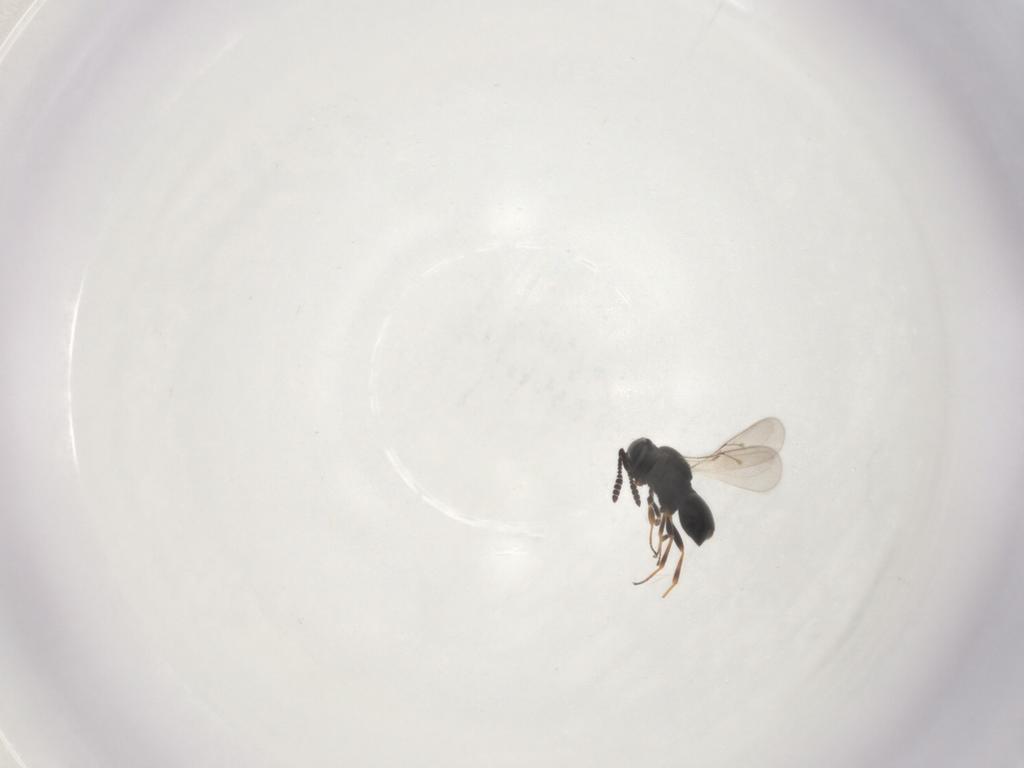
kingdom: Animalia
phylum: Arthropoda
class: Insecta
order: Hymenoptera
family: Scelionidae
